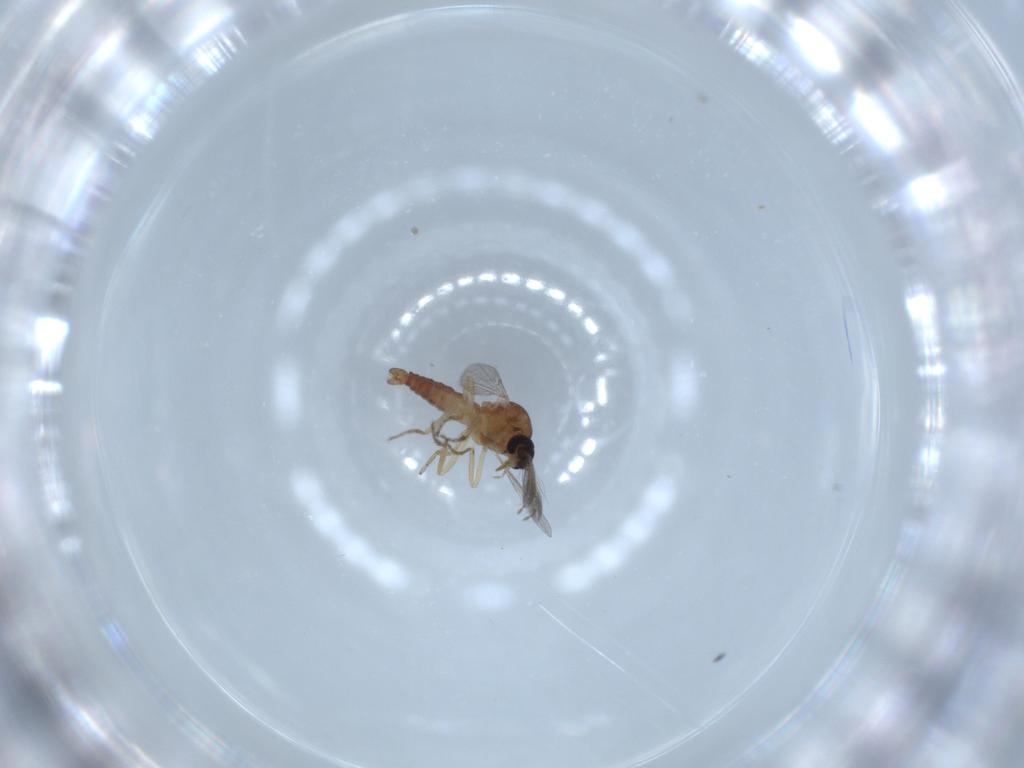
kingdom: Animalia
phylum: Arthropoda
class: Insecta
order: Diptera
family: Ceratopogonidae
